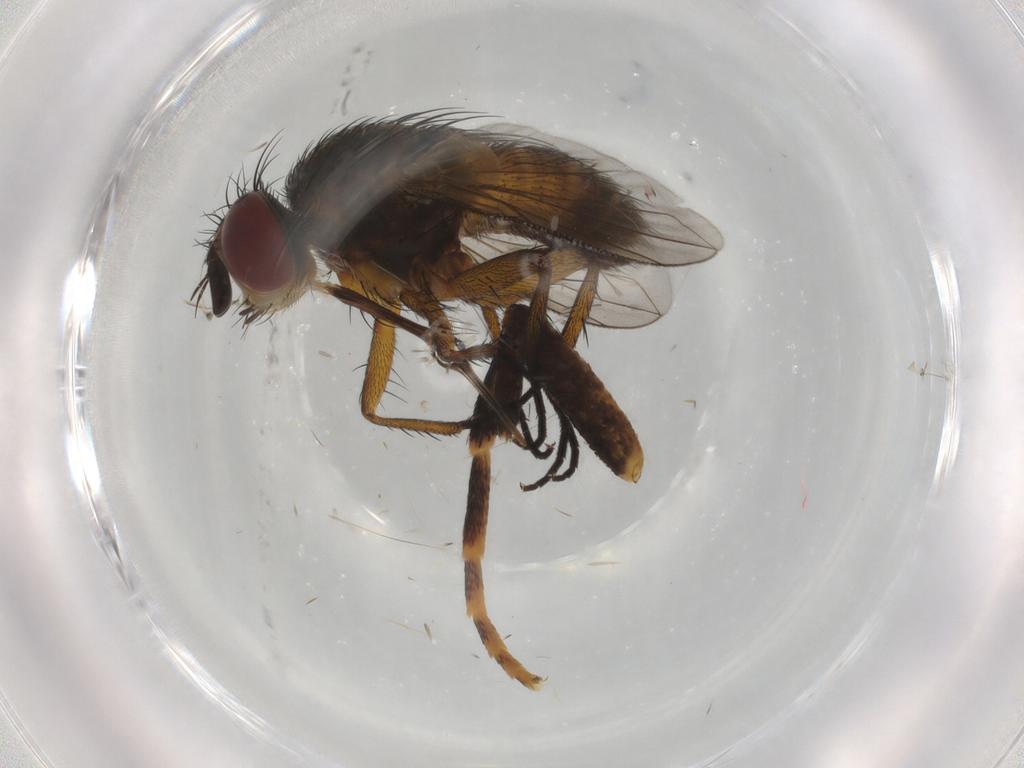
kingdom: Animalia
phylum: Arthropoda
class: Insecta
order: Diptera
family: Tachinidae
